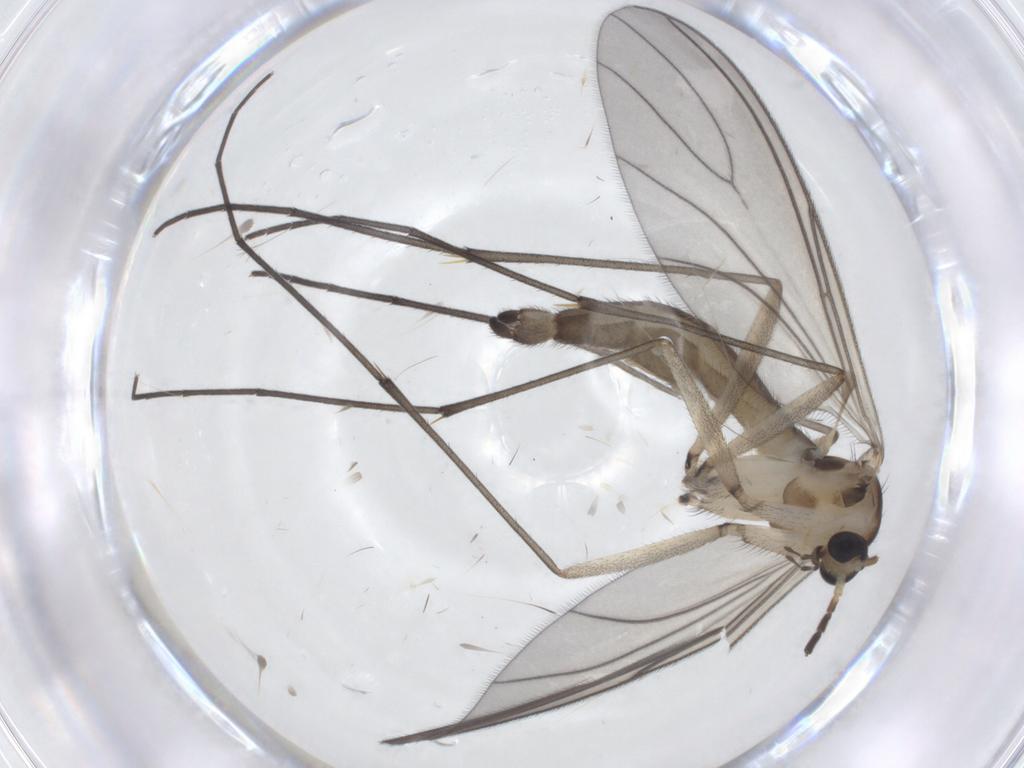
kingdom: Animalia
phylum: Arthropoda
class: Insecta
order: Diptera
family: Sciaridae
